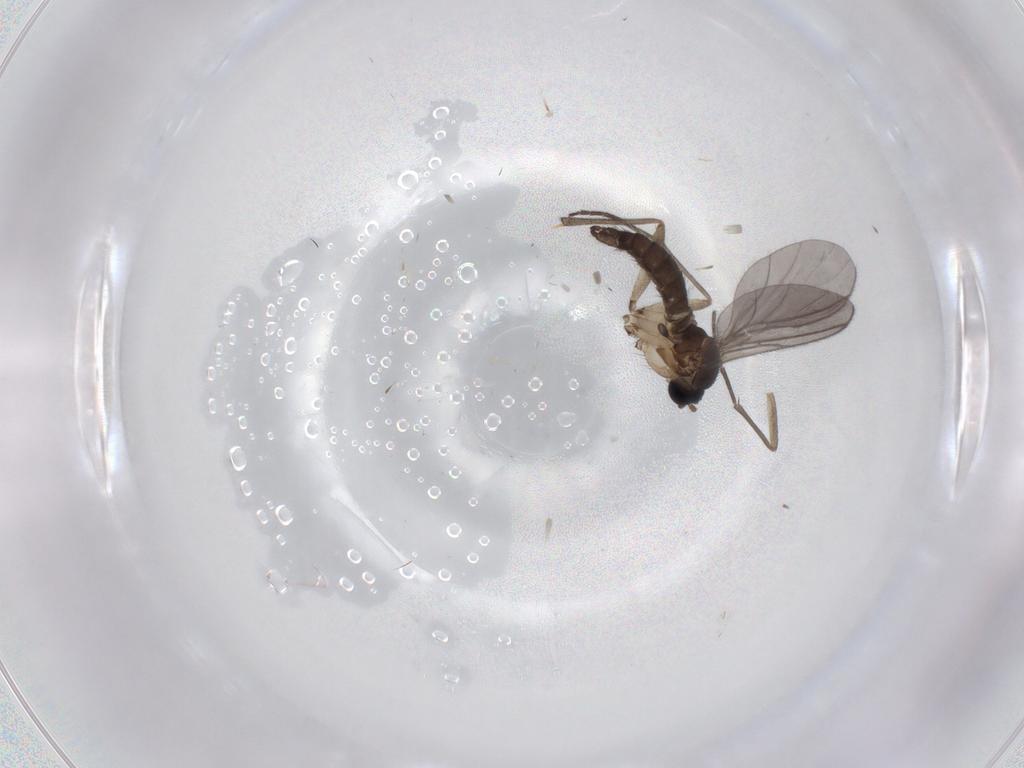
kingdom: Animalia
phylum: Arthropoda
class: Insecta
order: Diptera
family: Sciaridae
